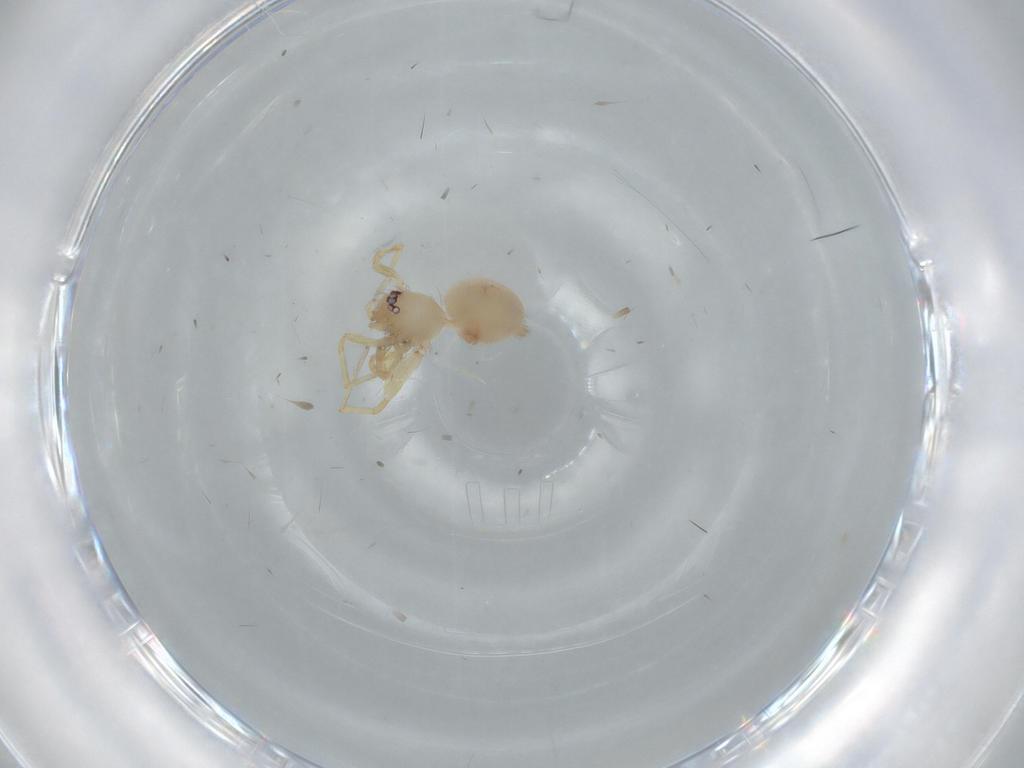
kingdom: Animalia
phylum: Arthropoda
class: Arachnida
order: Araneae
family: Oonopidae
